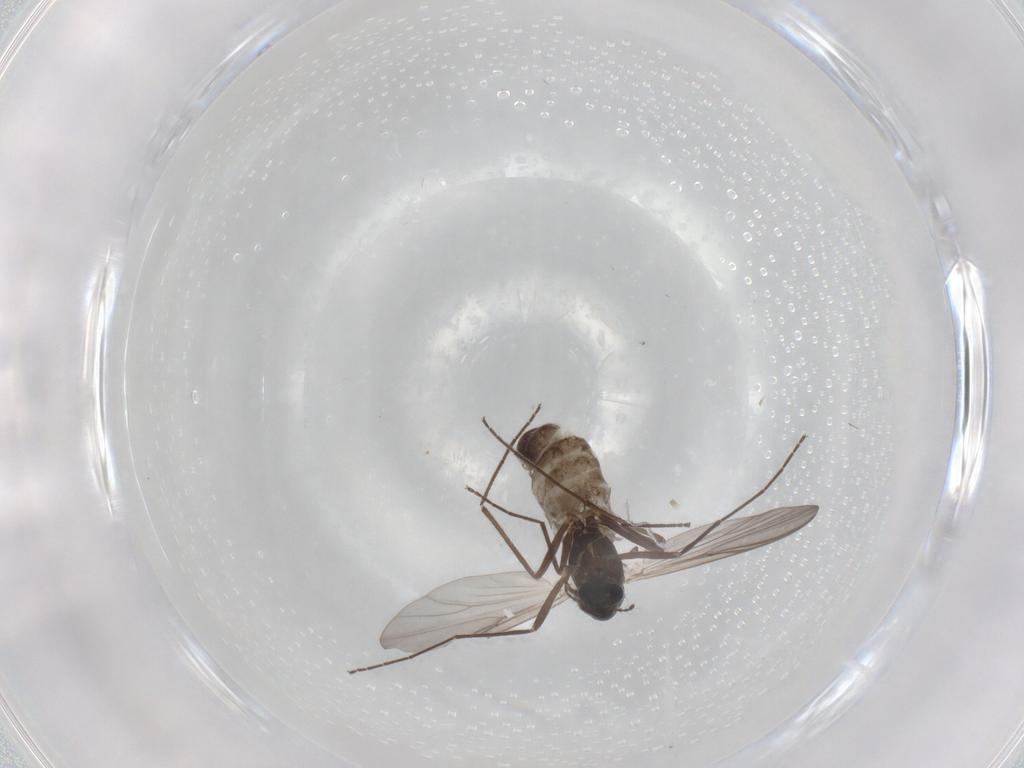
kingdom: Animalia
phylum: Arthropoda
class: Insecta
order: Diptera
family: Chironomidae
